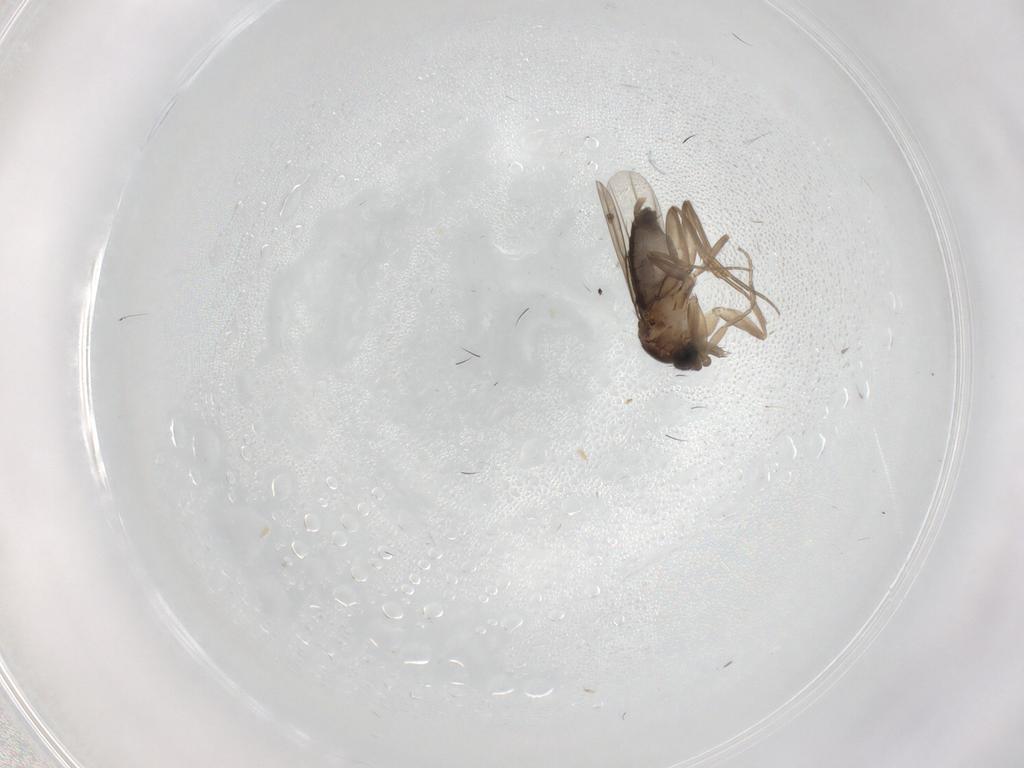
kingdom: Animalia
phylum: Arthropoda
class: Insecta
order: Diptera
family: Phoridae
